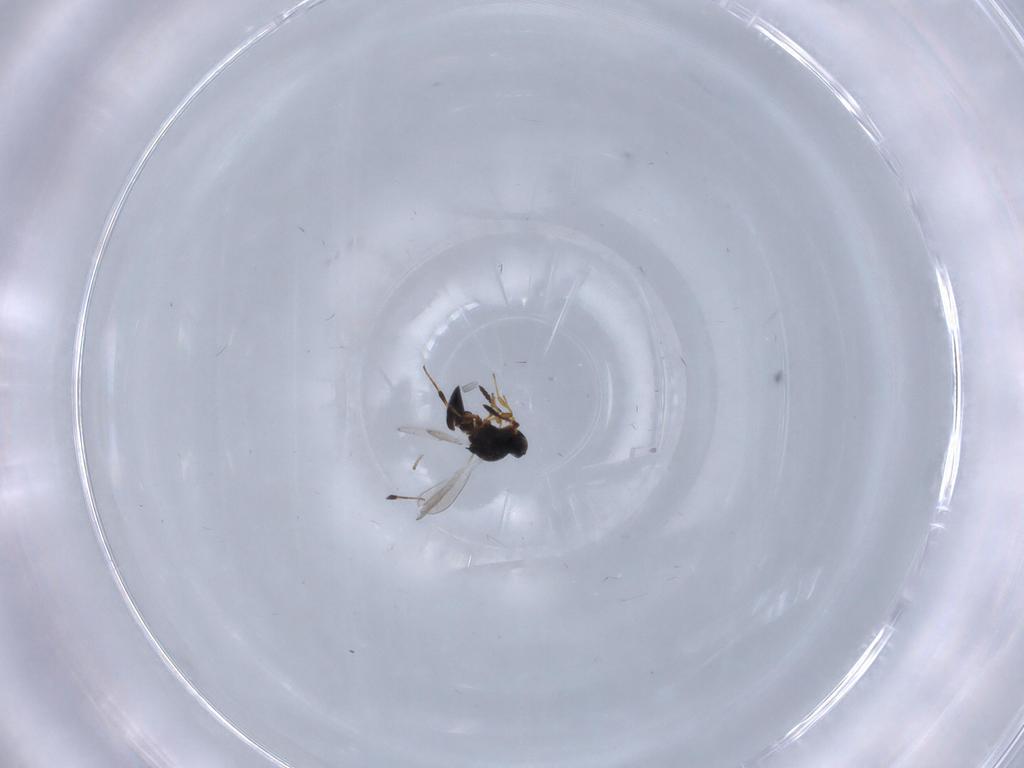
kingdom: Animalia
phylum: Arthropoda
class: Insecta
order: Hymenoptera
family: Platygastridae
